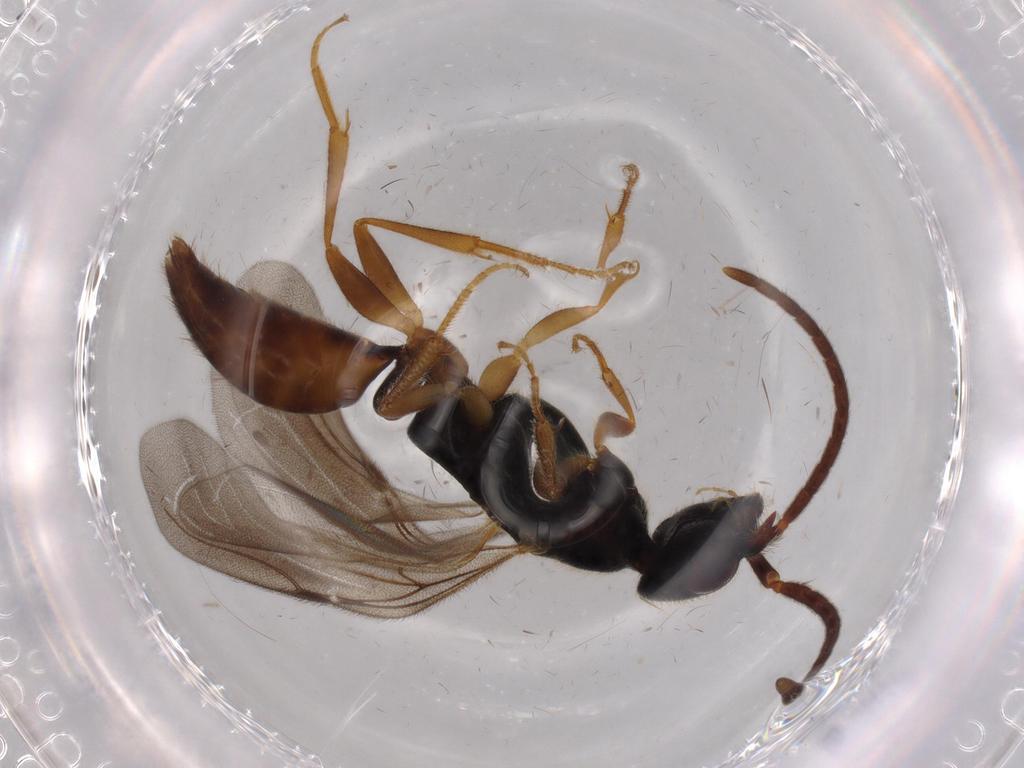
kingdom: Animalia
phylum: Arthropoda
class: Insecta
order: Hymenoptera
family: Bethylidae
